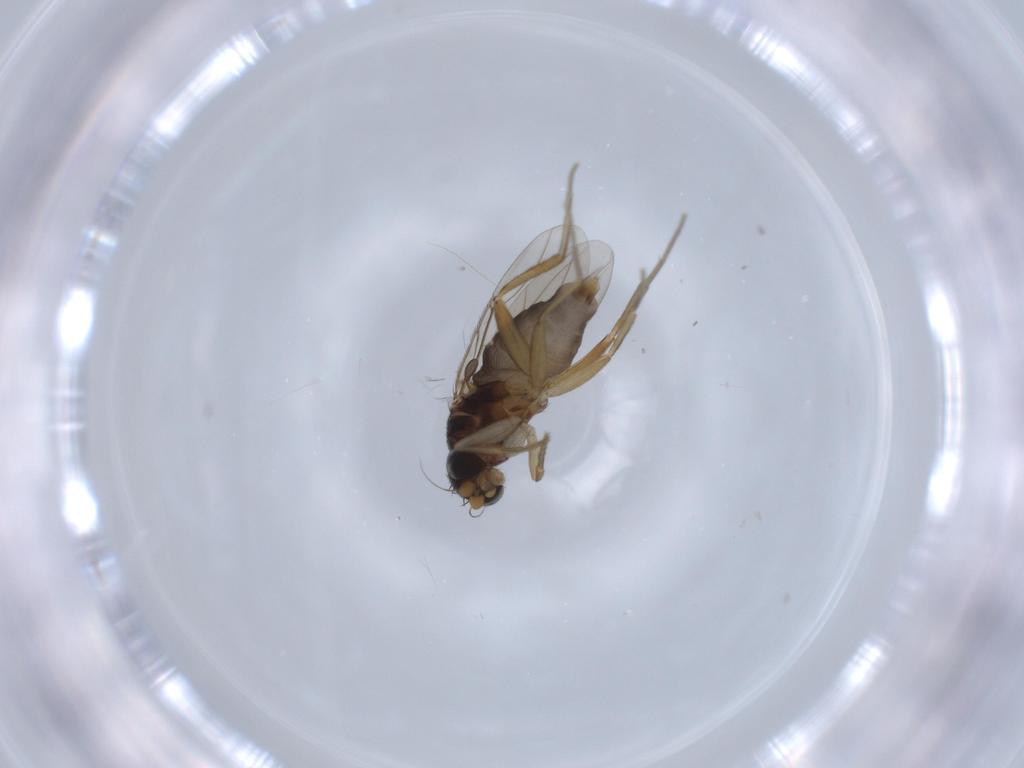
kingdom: Animalia
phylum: Arthropoda
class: Insecta
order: Diptera
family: Phoridae
